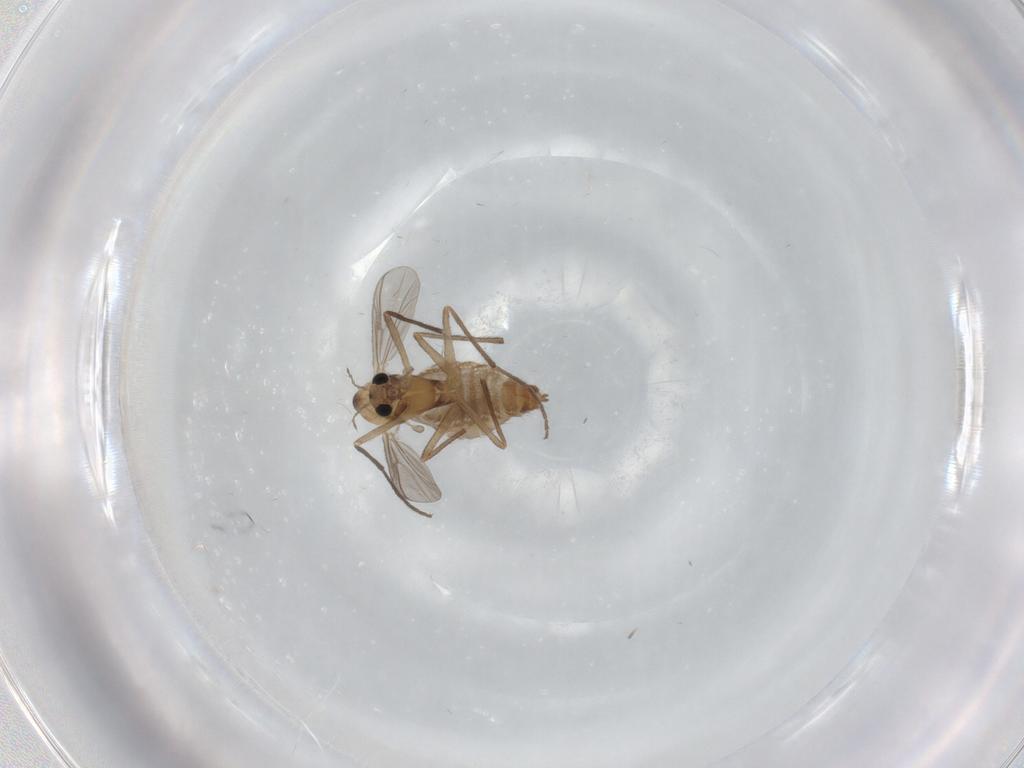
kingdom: Animalia
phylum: Arthropoda
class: Insecta
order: Diptera
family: Chironomidae
